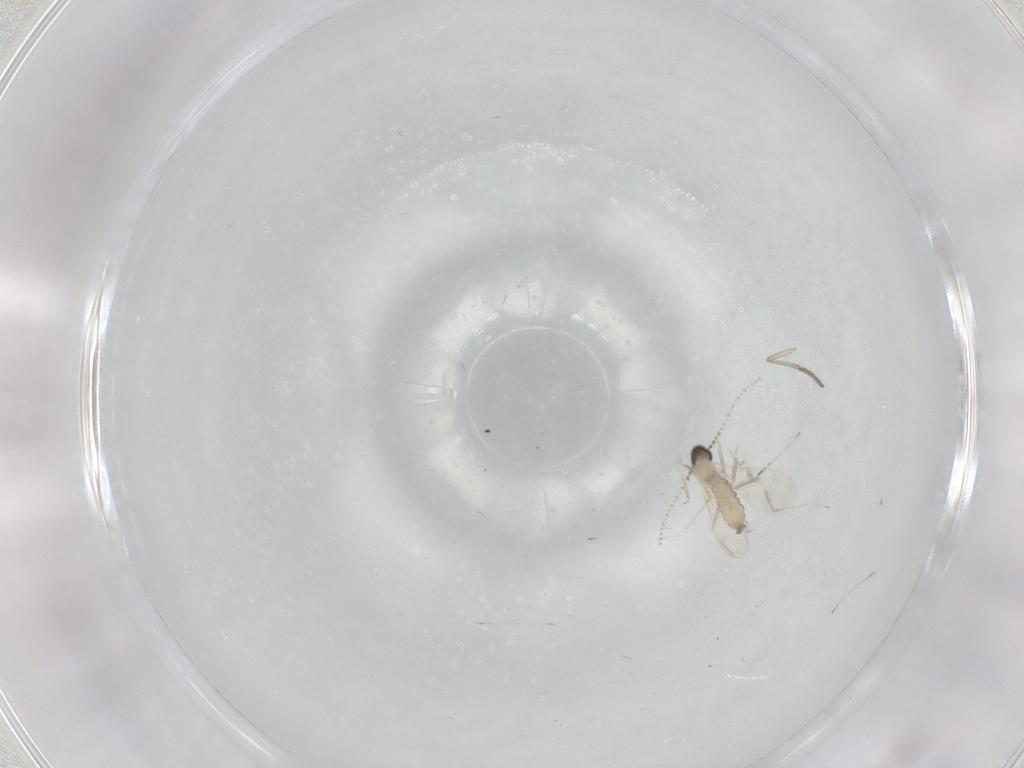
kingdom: Animalia
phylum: Arthropoda
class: Insecta
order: Diptera
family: Cecidomyiidae
